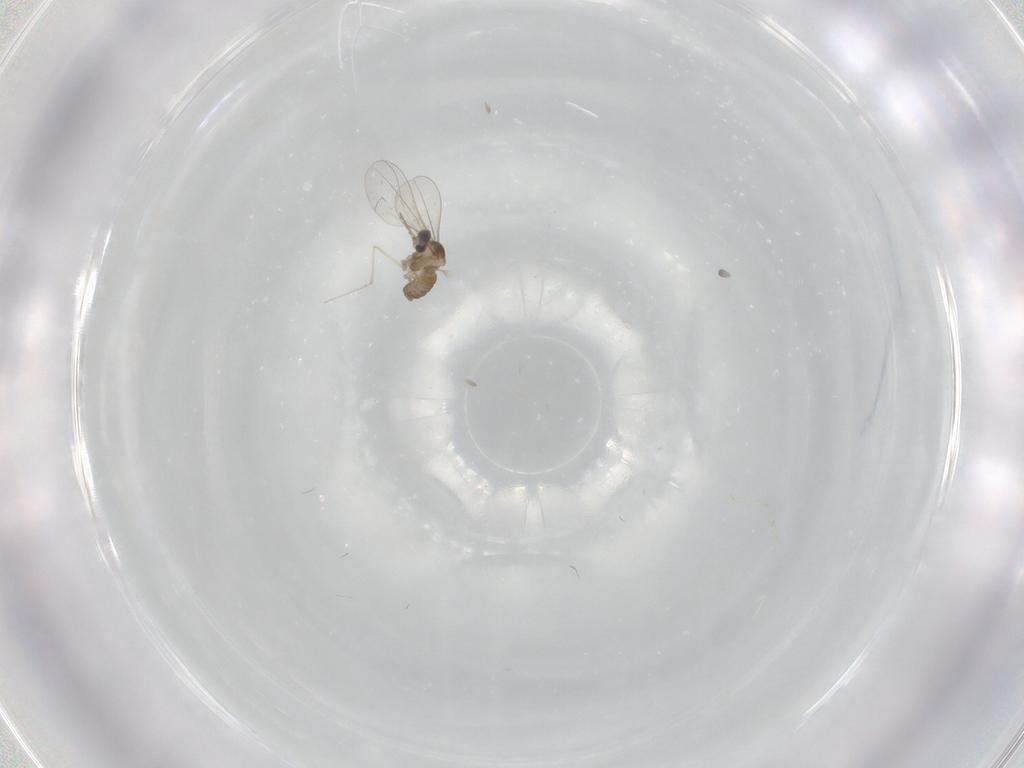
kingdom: Animalia
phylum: Arthropoda
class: Insecta
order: Diptera
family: Cecidomyiidae
